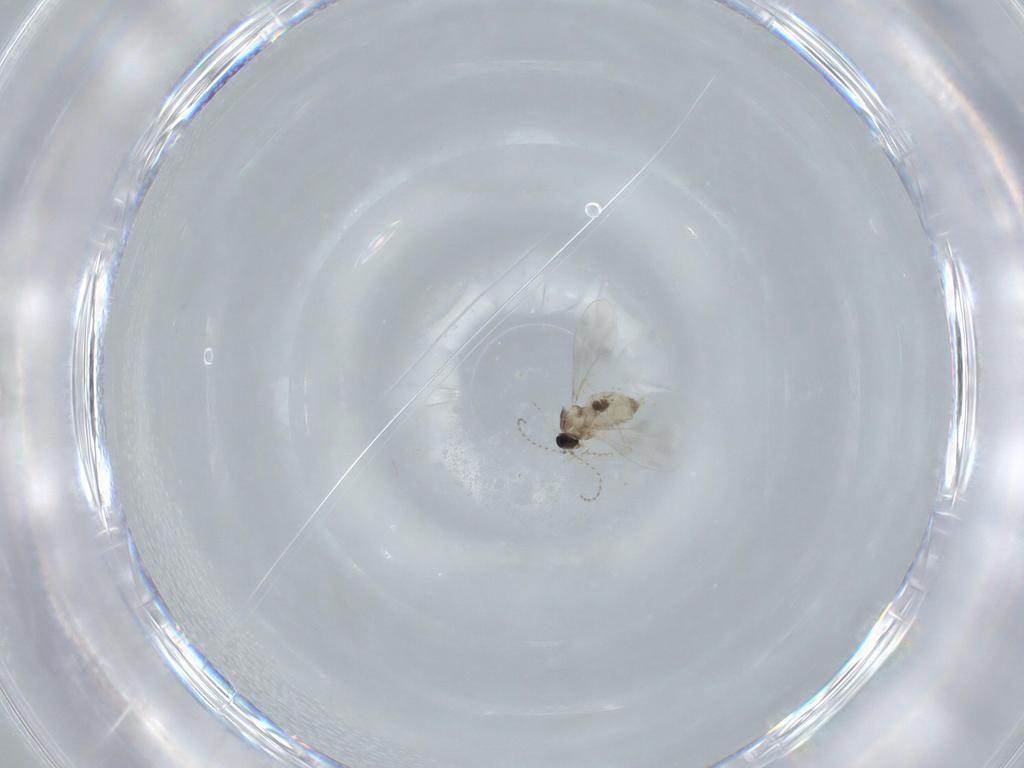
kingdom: Animalia
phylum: Arthropoda
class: Insecta
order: Diptera
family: Cecidomyiidae
